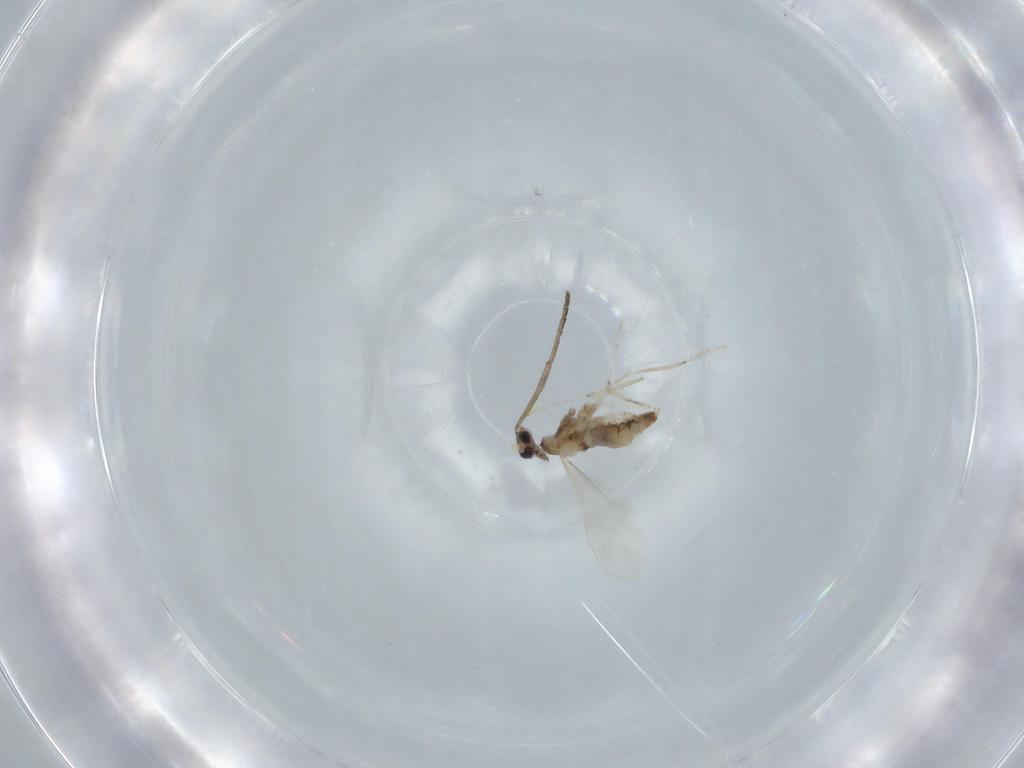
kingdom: Animalia
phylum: Arthropoda
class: Insecta
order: Diptera
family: Cecidomyiidae
